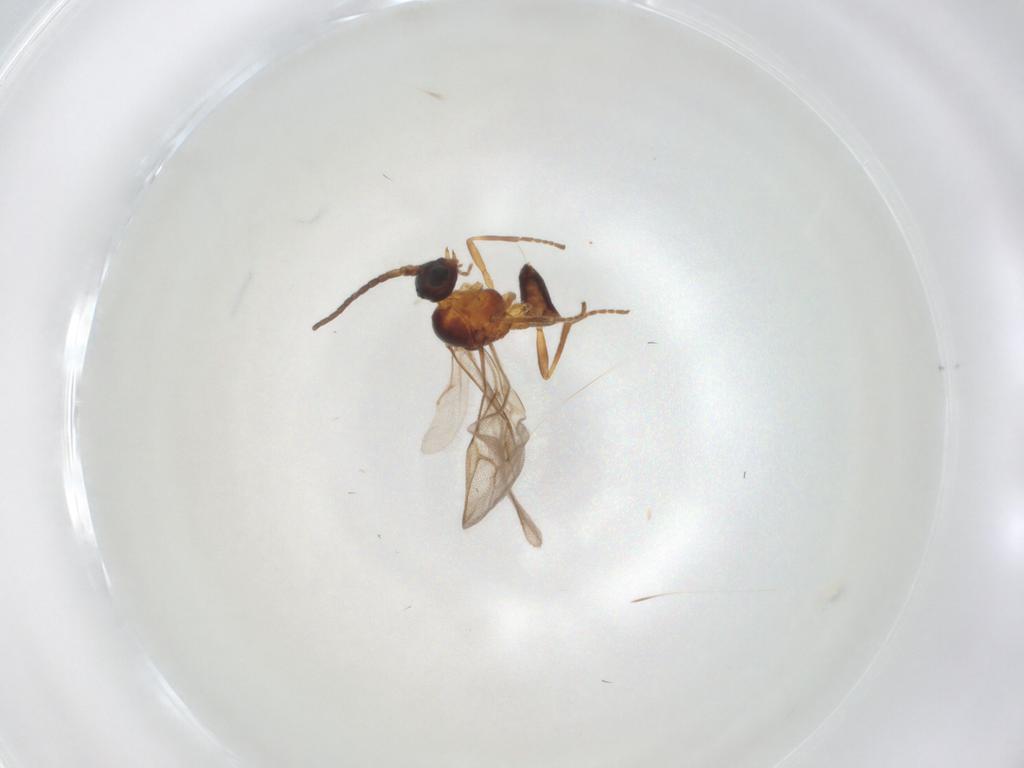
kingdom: Animalia
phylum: Arthropoda
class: Insecta
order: Hymenoptera
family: Braconidae
